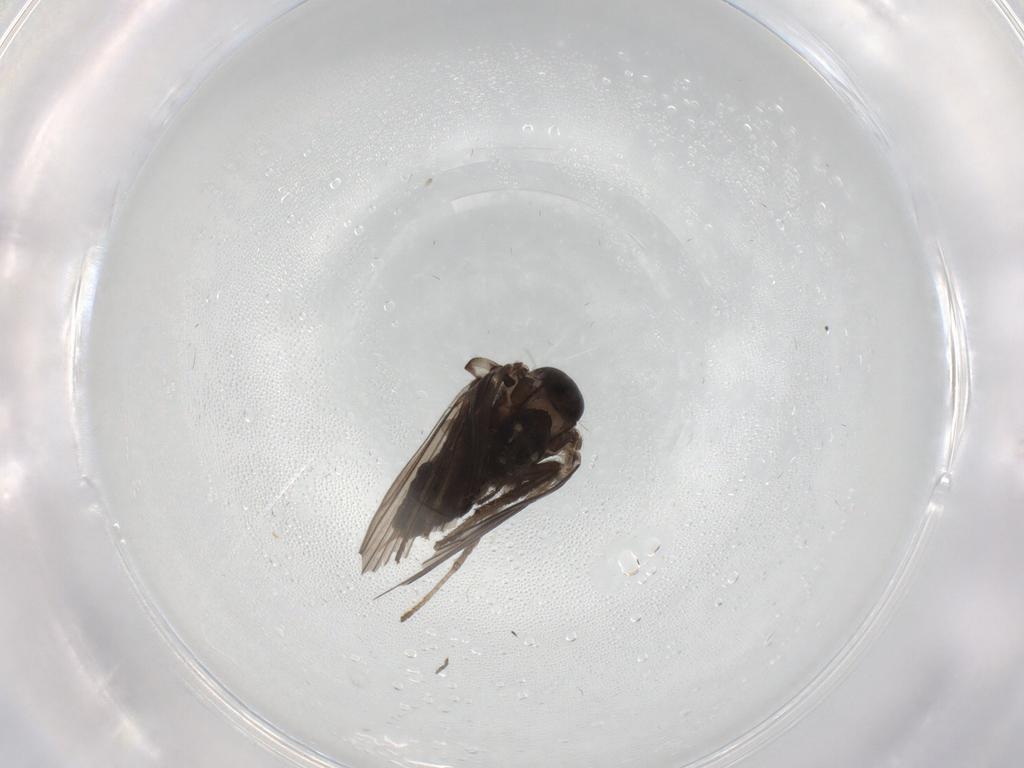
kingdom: Animalia
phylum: Arthropoda
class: Insecta
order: Diptera
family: Psychodidae
